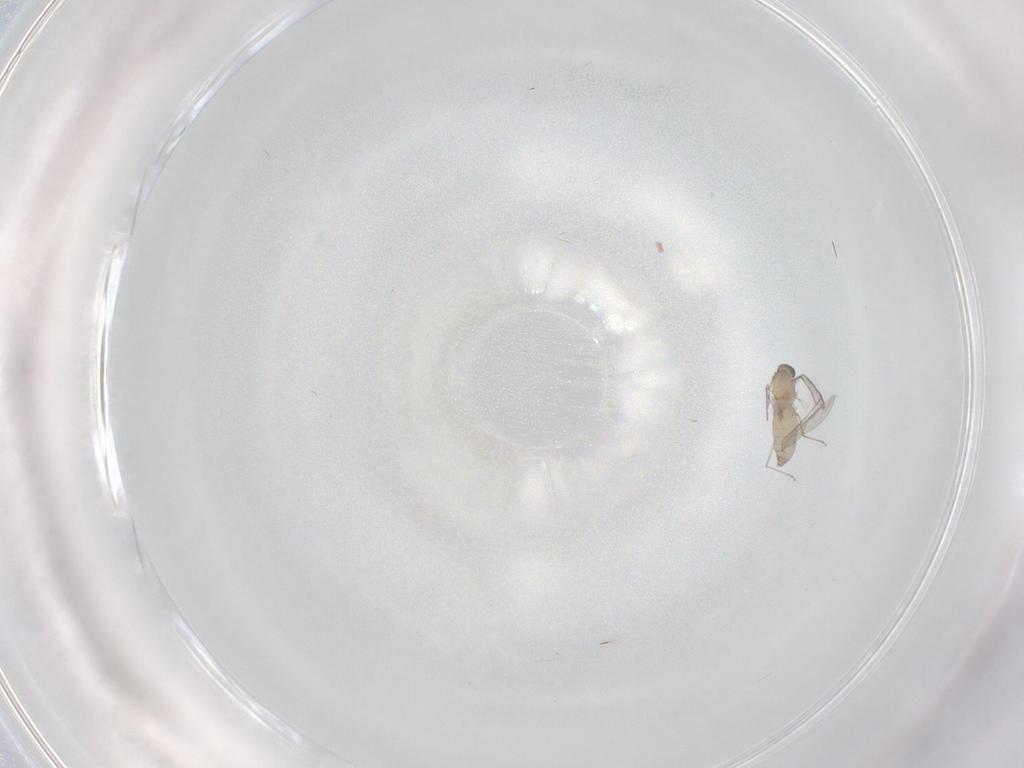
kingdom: Animalia
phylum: Arthropoda
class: Insecta
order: Diptera
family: Cecidomyiidae
